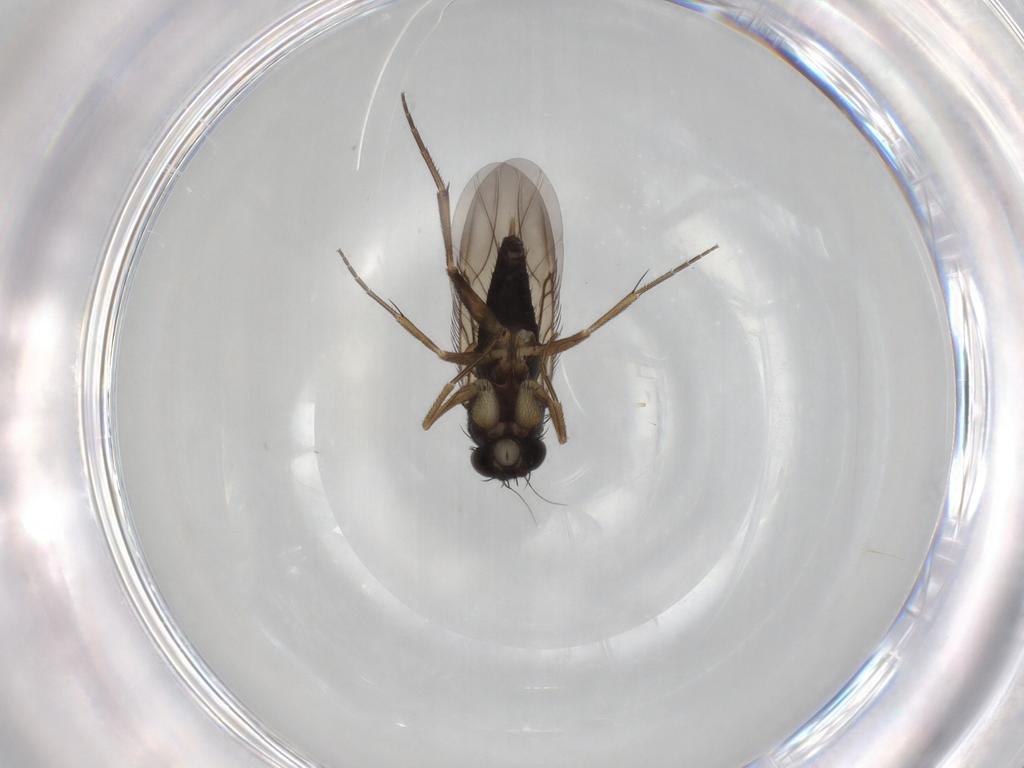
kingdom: Animalia
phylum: Arthropoda
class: Insecta
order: Diptera
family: Phoridae
